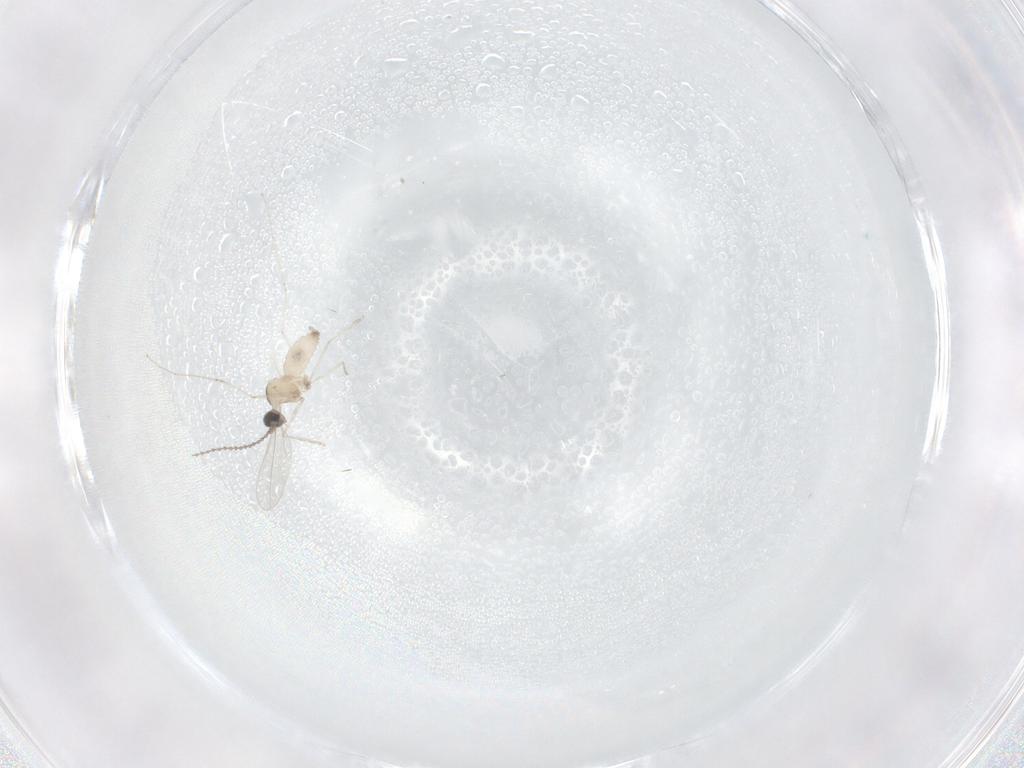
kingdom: Animalia
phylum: Arthropoda
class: Insecta
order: Diptera
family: Cecidomyiidae
